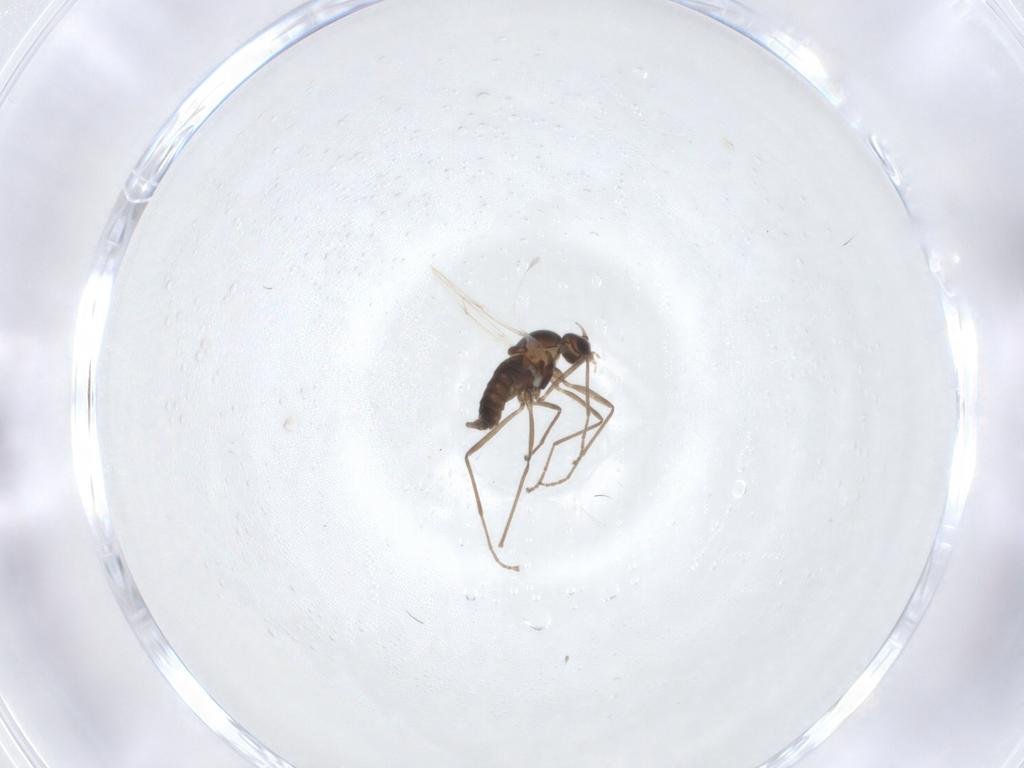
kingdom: Animalia
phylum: Arthropoda
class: Insecta
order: Diptera
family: Cecidomyiidae
